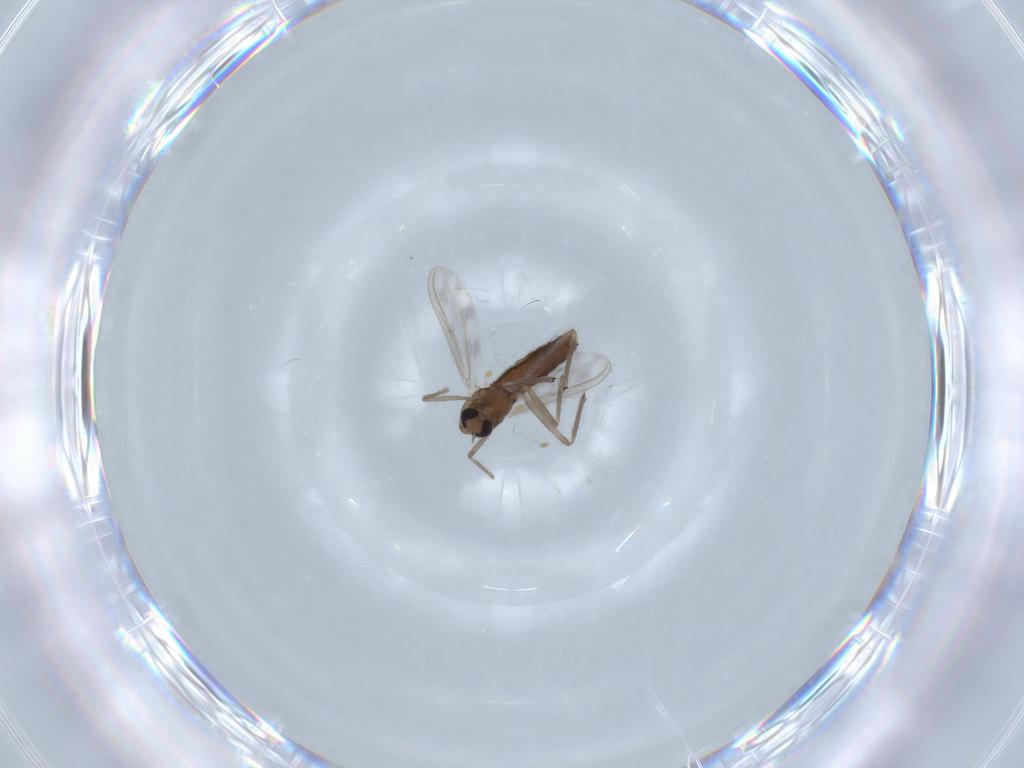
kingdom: Animalia
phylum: Arthropoda
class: Insecta
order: Diptera
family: Chironomidae
